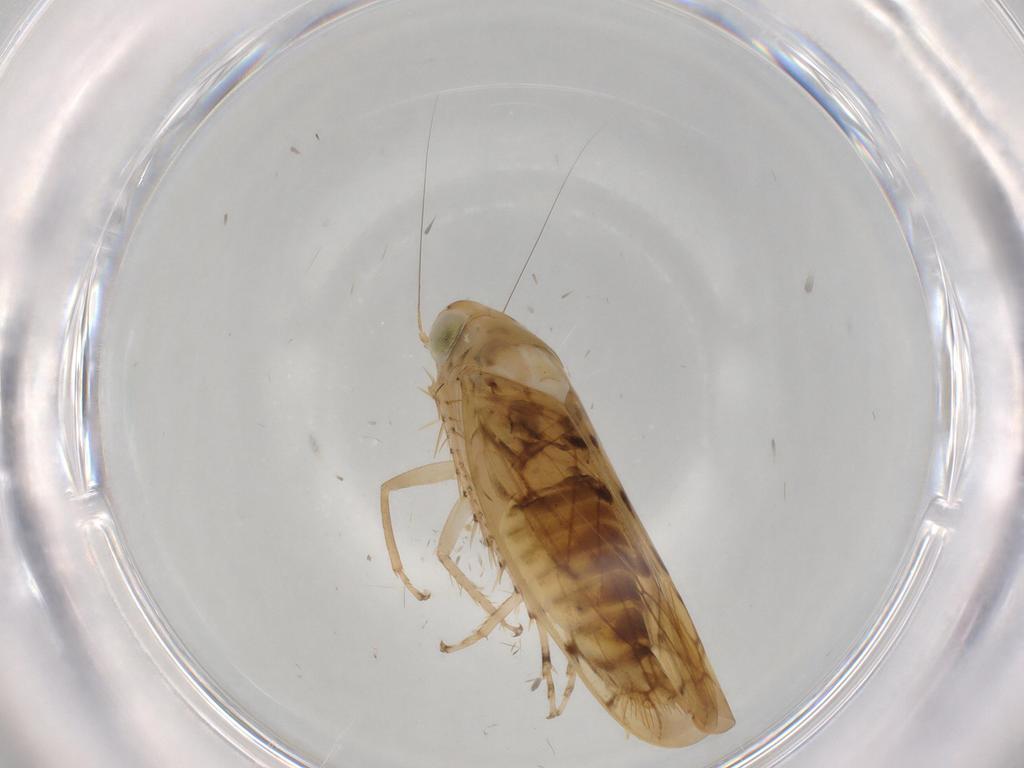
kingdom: Animalia
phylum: Arthropoda
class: Insecta
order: Hemiptera
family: Cicadellidae
